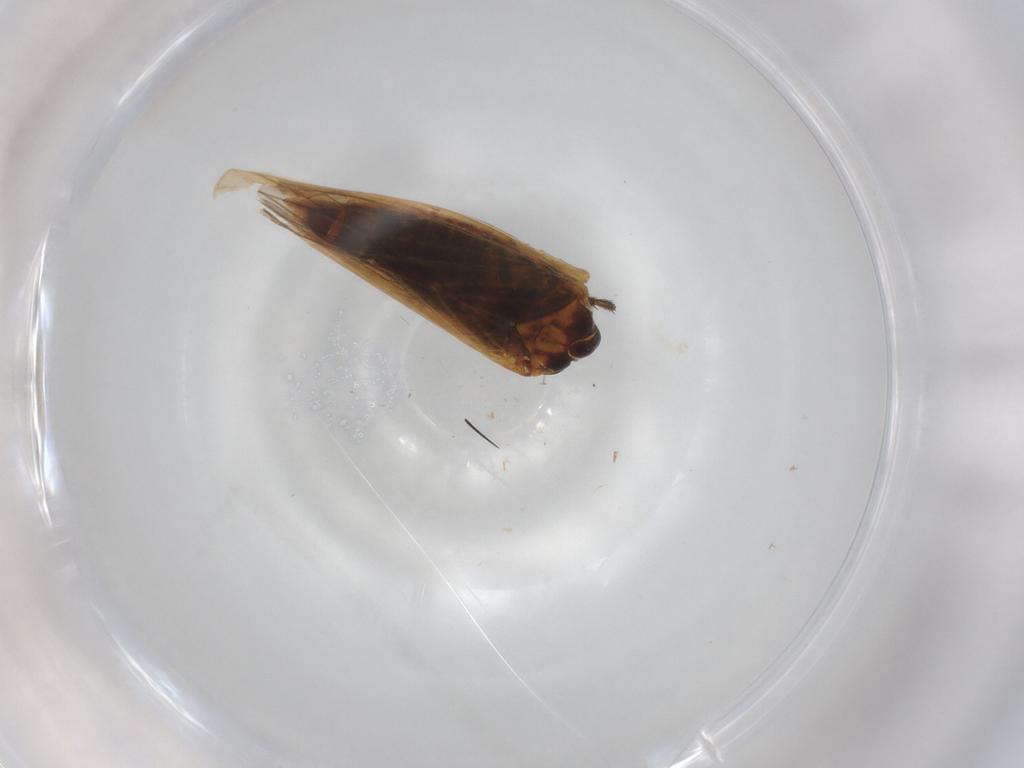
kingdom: Animalia
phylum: Arthropoda
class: Insecta
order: Hemiptera
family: Cicadellidae
